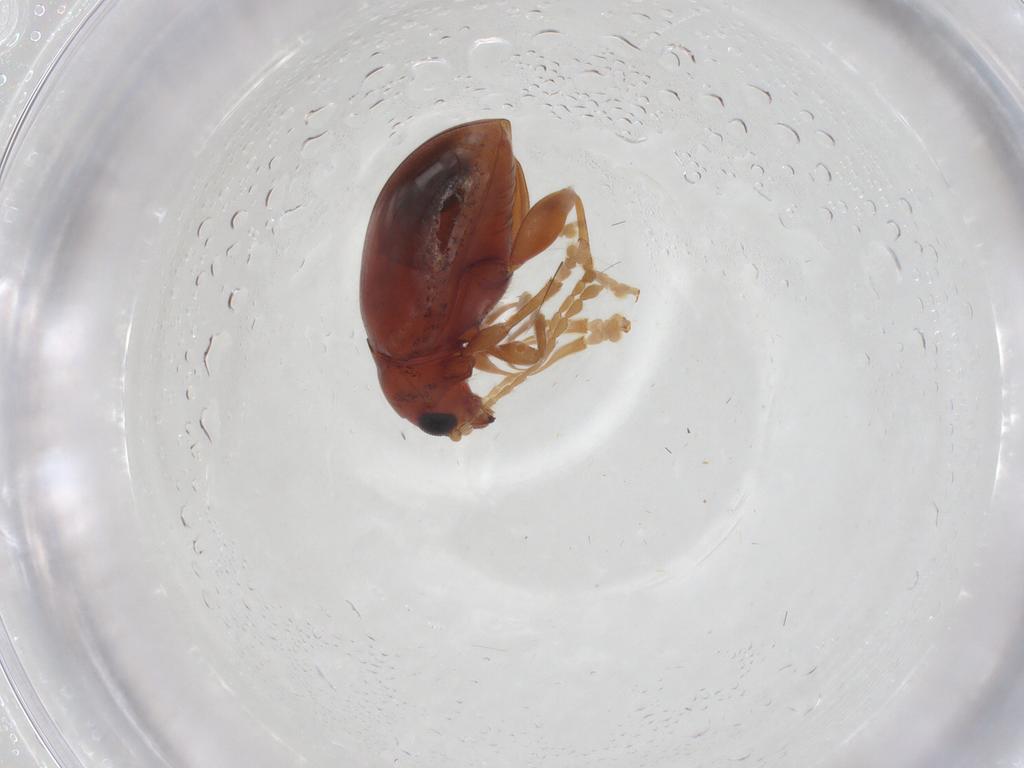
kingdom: Animalia
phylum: Arthropoda
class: Insecta
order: Coleoptera
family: Chrysomelidae
